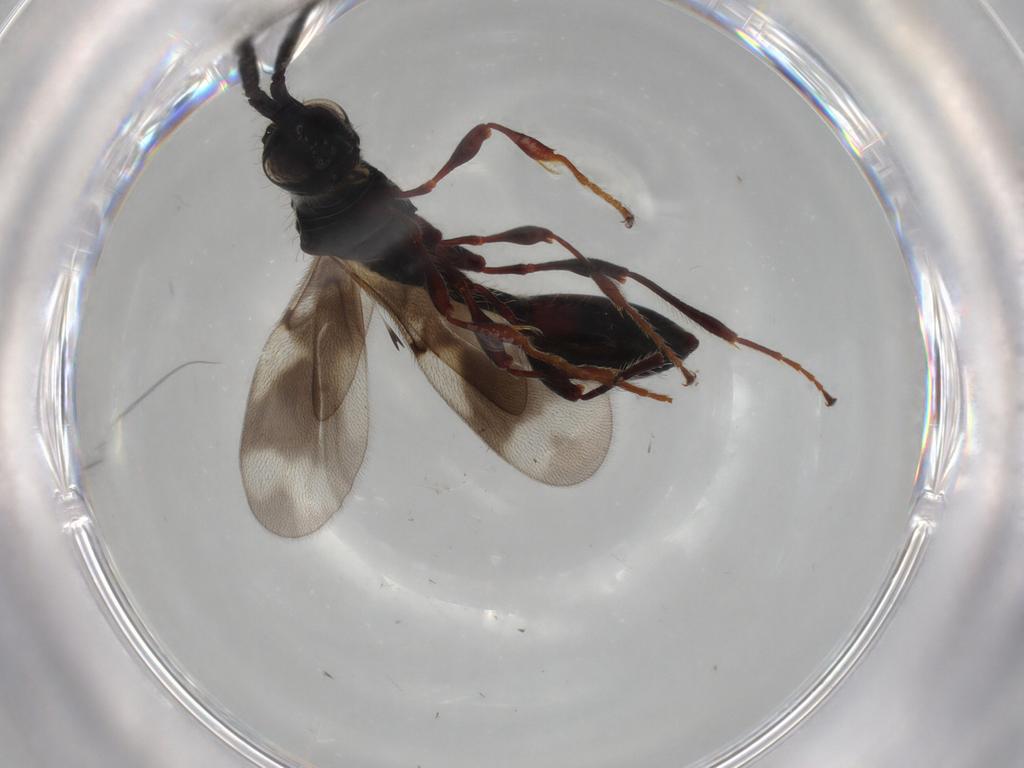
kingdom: Animalia
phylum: Arthropoda
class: Insecta
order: Hymenoptera
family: Diapriidae
